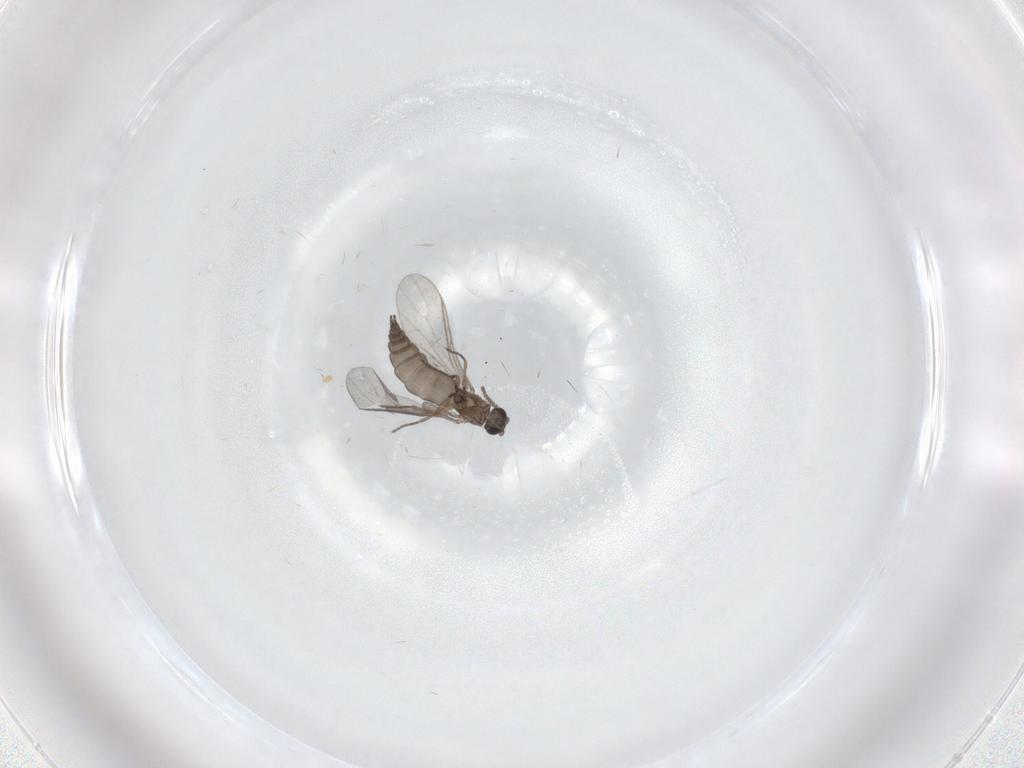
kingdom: Animalia
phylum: Arthropoda
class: Insecta
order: Diptera
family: Sciaridae
